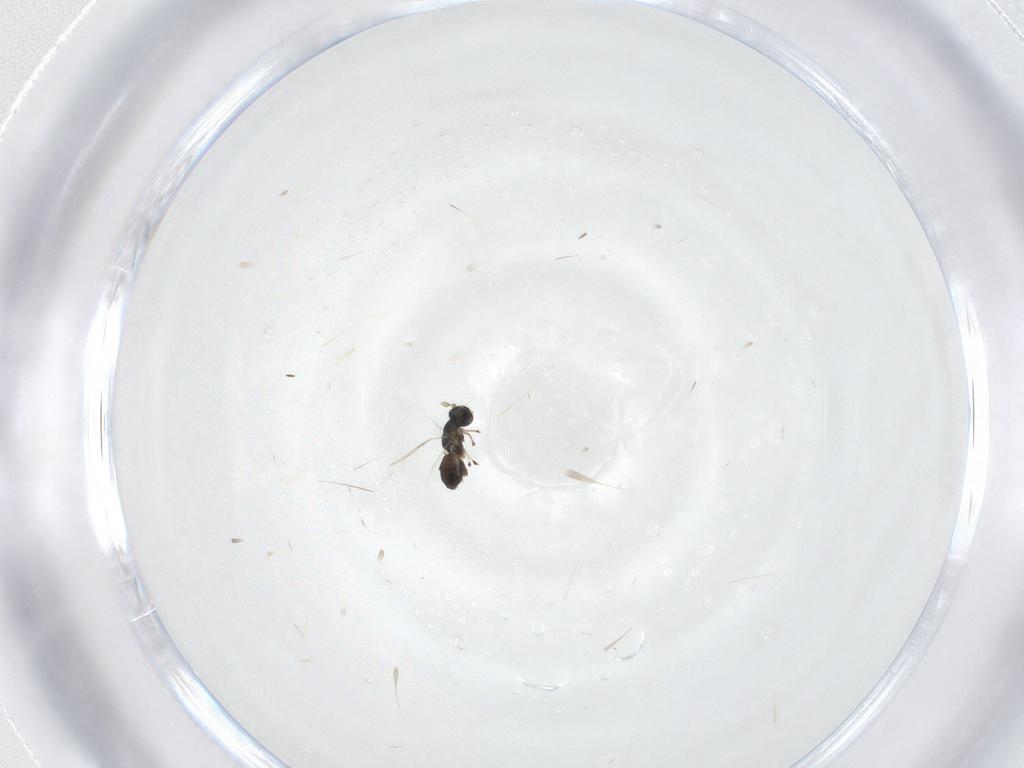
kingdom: Animalia
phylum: Arthropoda
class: Insecta
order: Hymenoptera
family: Eulophidae
